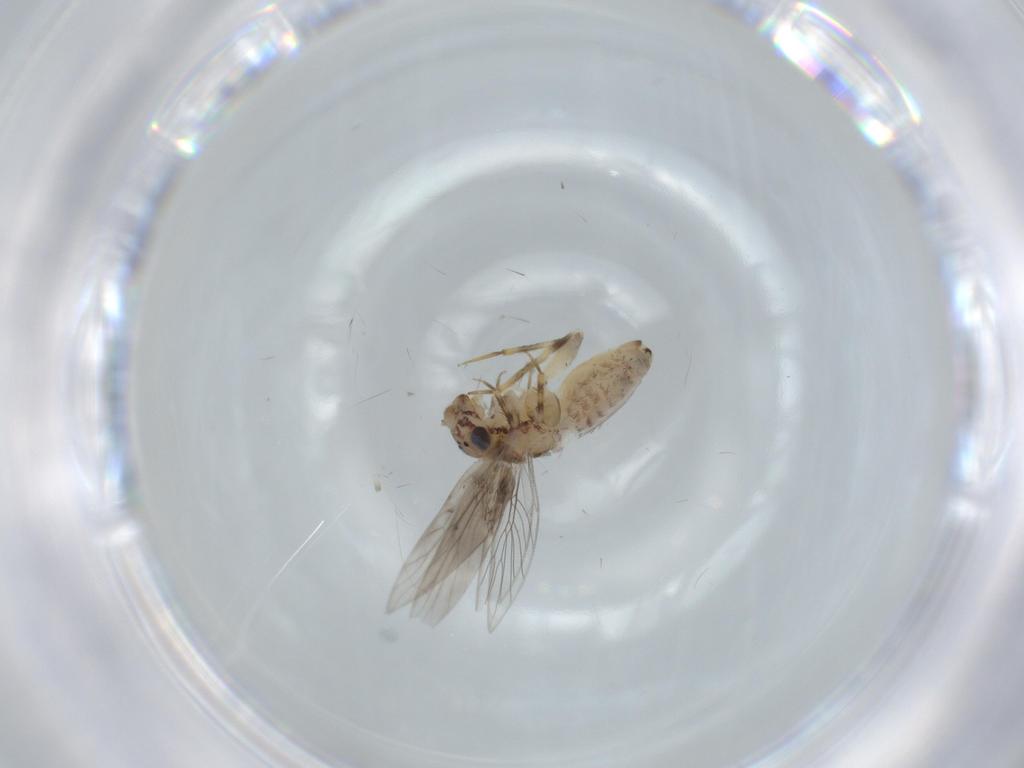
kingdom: Animalia
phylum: Arthropoda
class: Insecta
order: Psocodea
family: Lepidopsocidae
